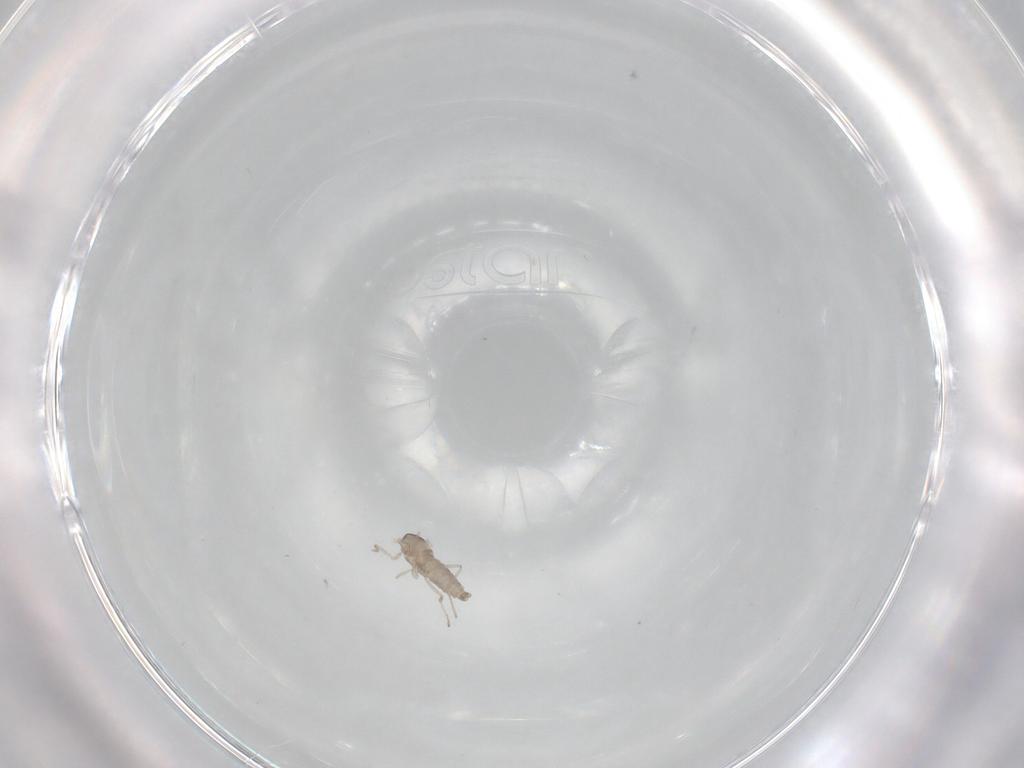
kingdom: Animalia
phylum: Arthropoda
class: Insecta
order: Diptera
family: Cecidomyiidae
